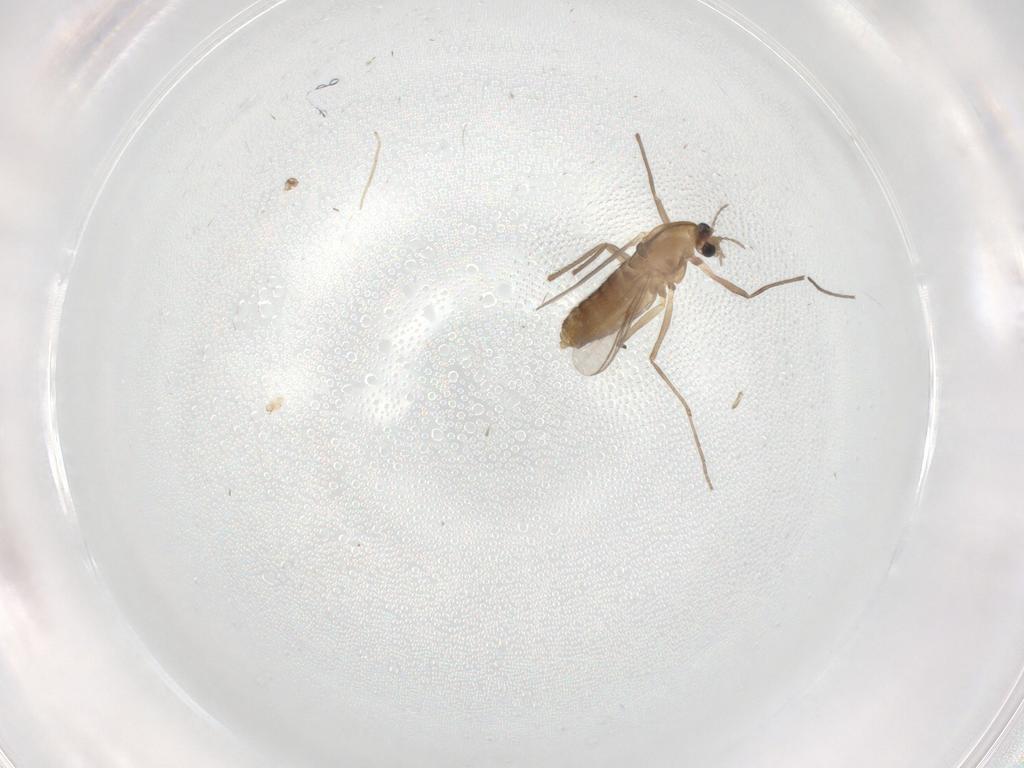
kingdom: Animalia
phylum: Arthropoda
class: Insecta
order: Diptera
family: Chironomidae
